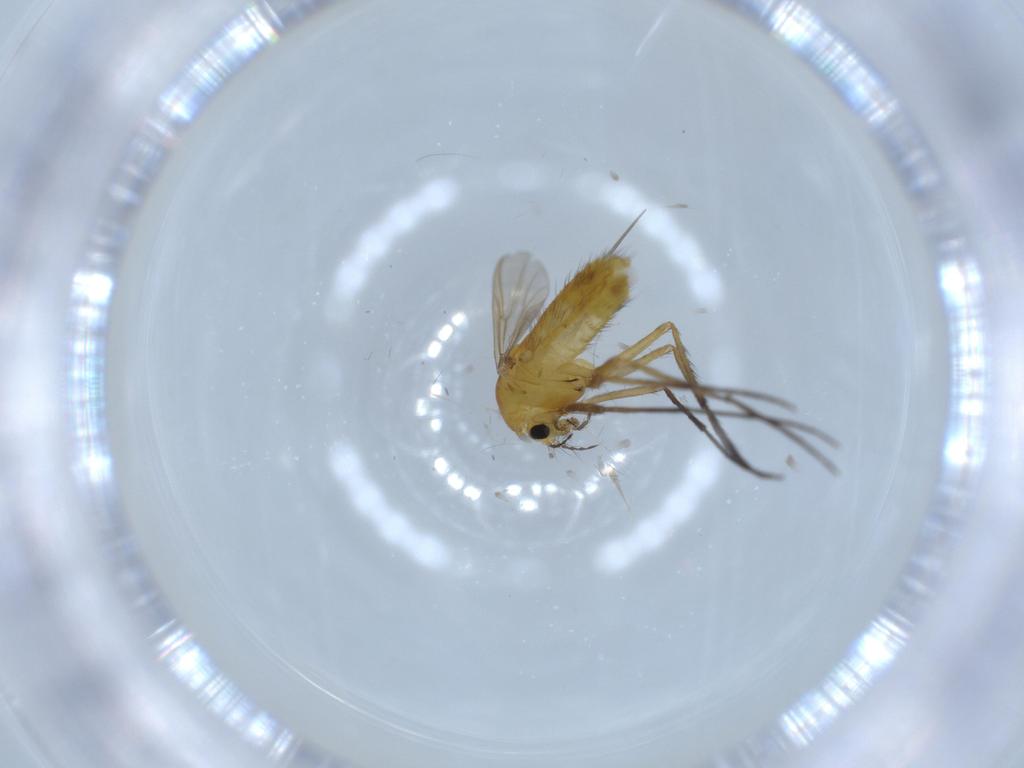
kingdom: Animalia
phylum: Arthropoda
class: Insecta
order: Diptera
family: Chironomidae
